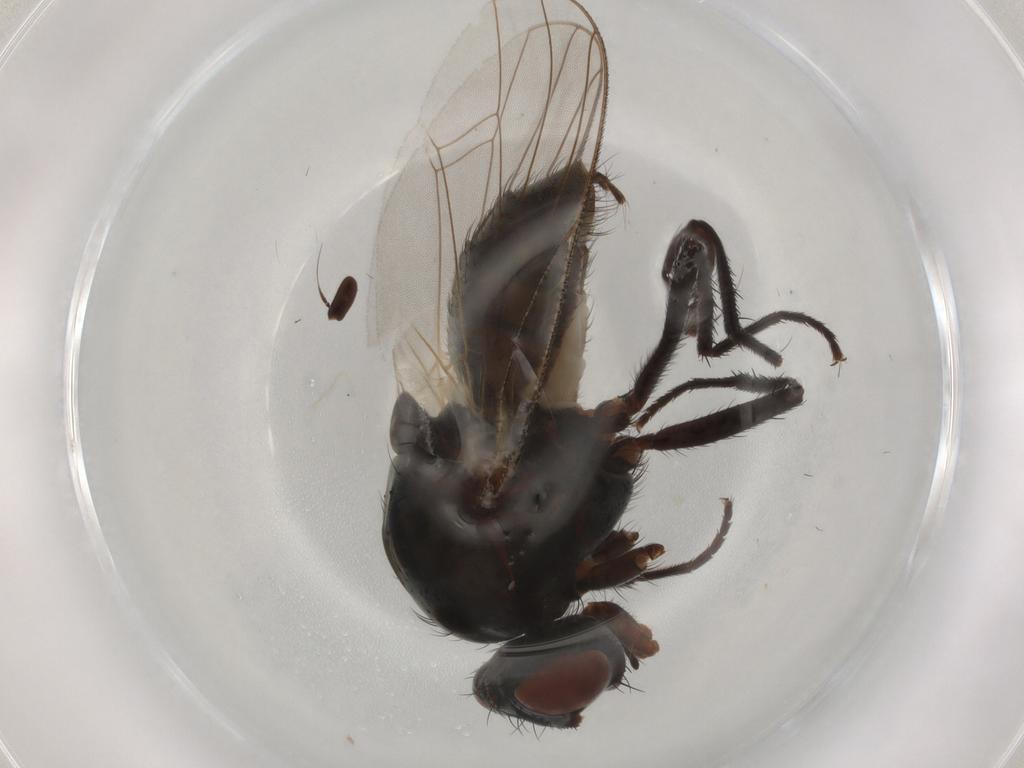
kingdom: Animalia
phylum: Arthropoda
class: Insecta
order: Diptera
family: Anthomyiidae
